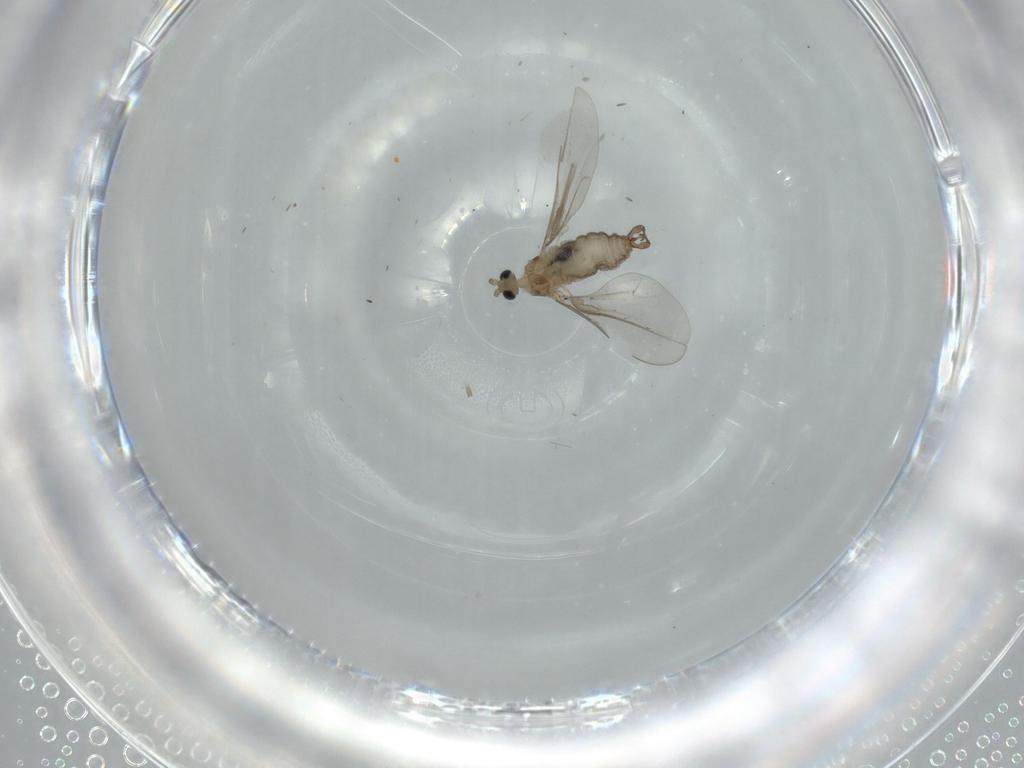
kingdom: Animalia
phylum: Arthropoda
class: Insecta
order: Diptera
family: Cecidomyiidae
